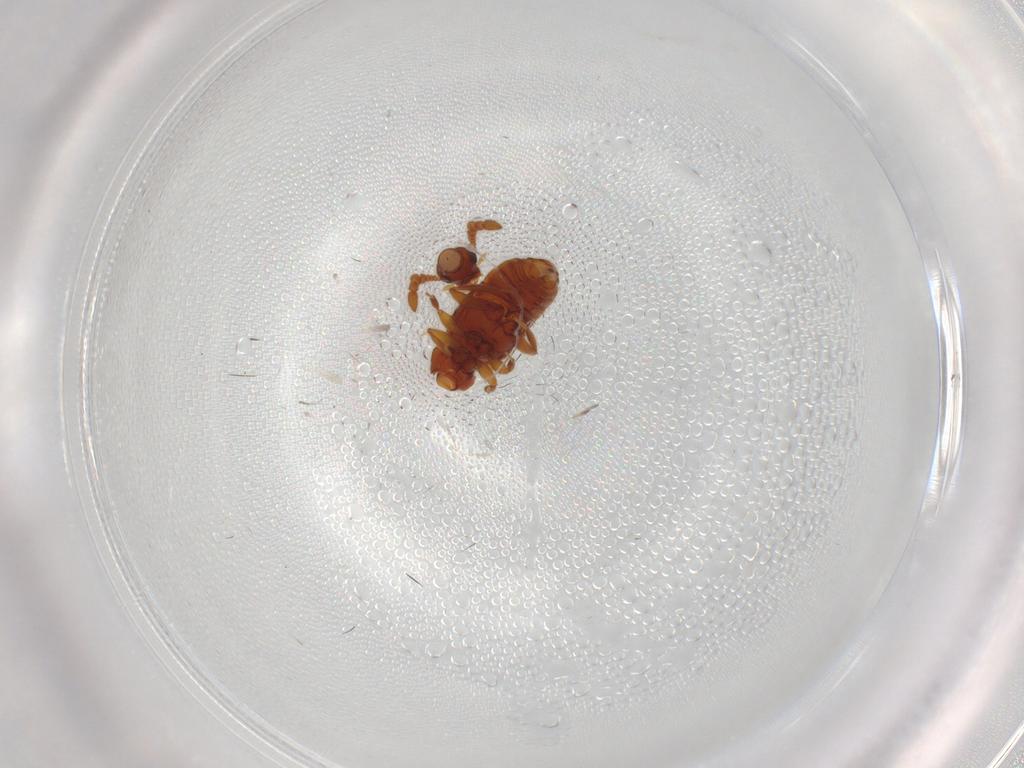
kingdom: Animalia
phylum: Arthropoda
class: Insecta
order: Coleoptera
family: Staphylinidae
